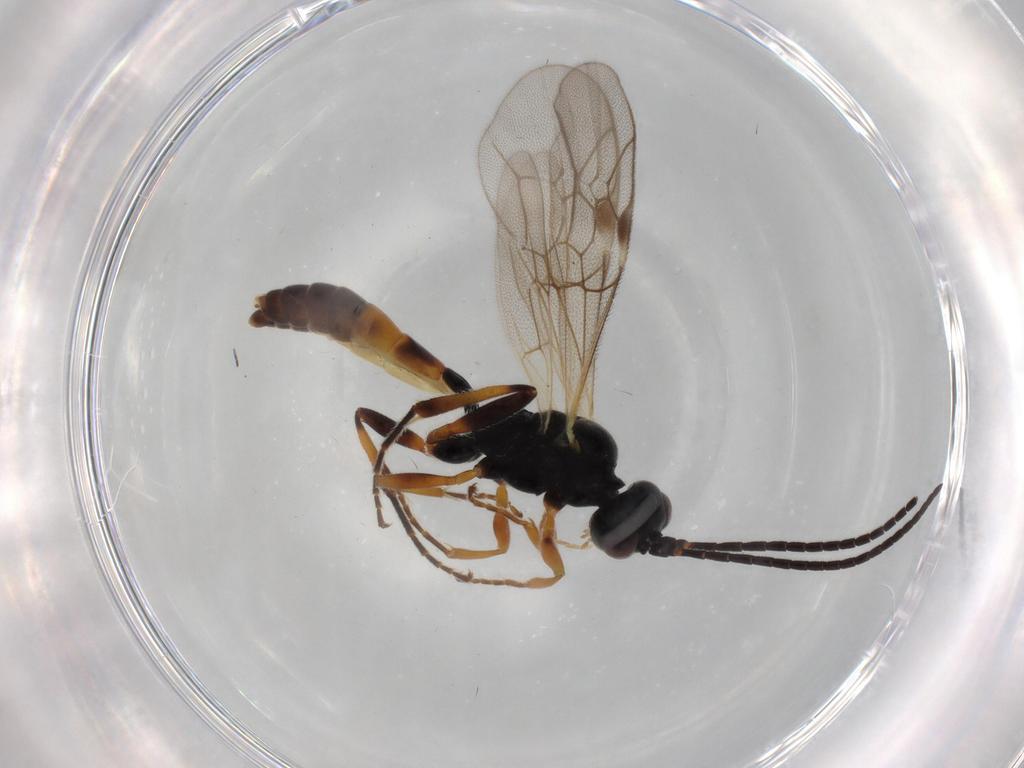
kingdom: Animalia
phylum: Arthropoda
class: Insecta
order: Hymenoptera
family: Ichneumonidae
